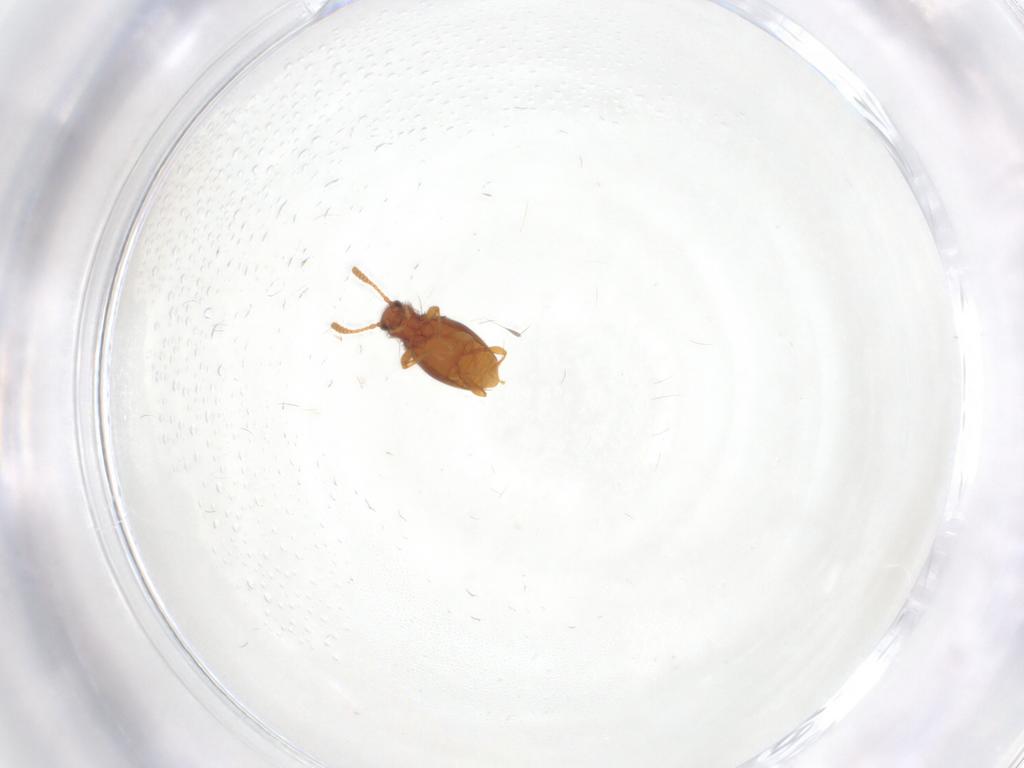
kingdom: Animalia
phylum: Arthropoda
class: Insecta
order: Coleoptera
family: Staphylinidae
